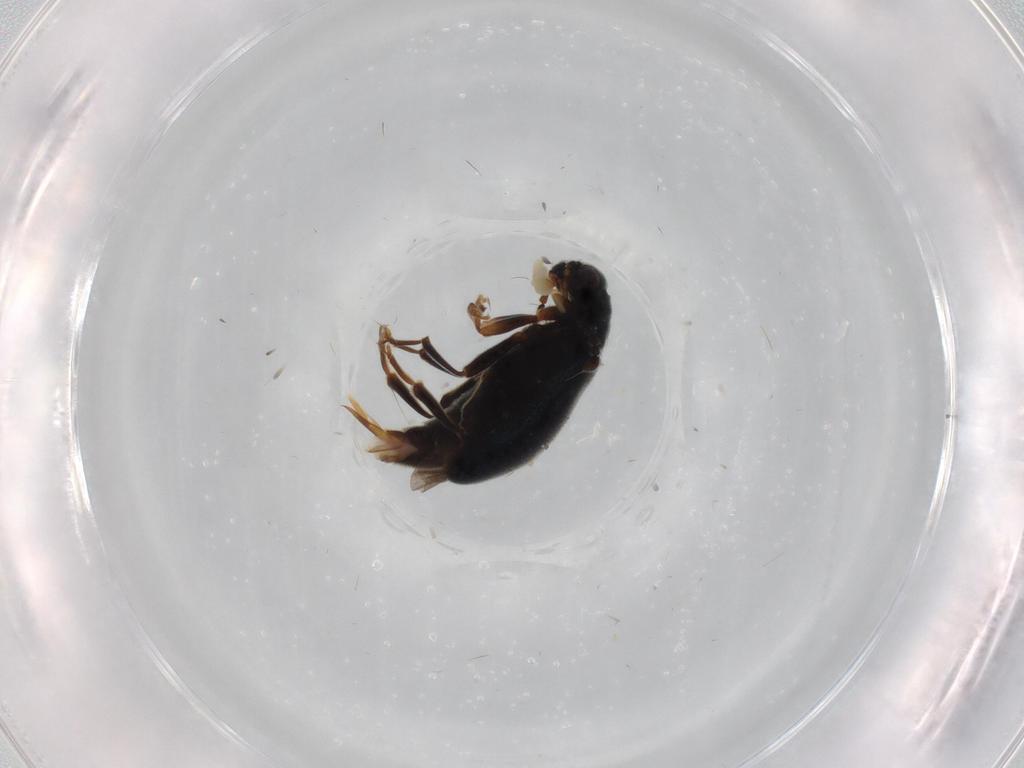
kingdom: Animalia
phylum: Arthropoda
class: Insecta
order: Coleoptera
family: Aderidae
